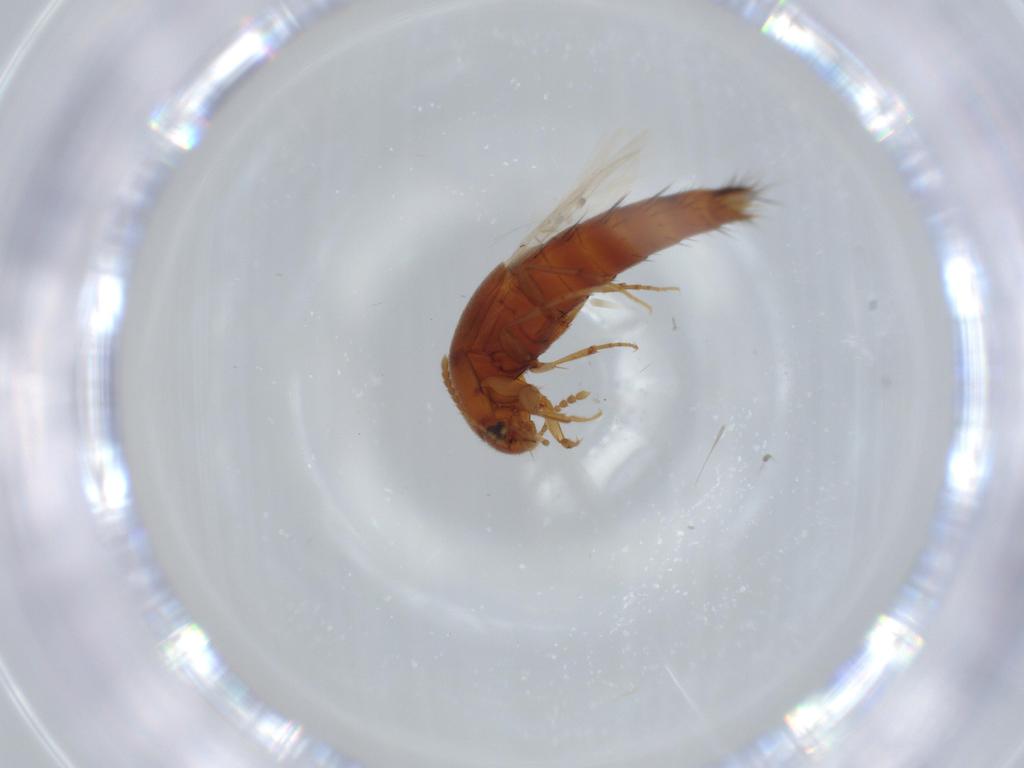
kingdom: Animalia
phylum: Arthropoda
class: Insecta
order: Coleoptera
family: Staphylinidae
